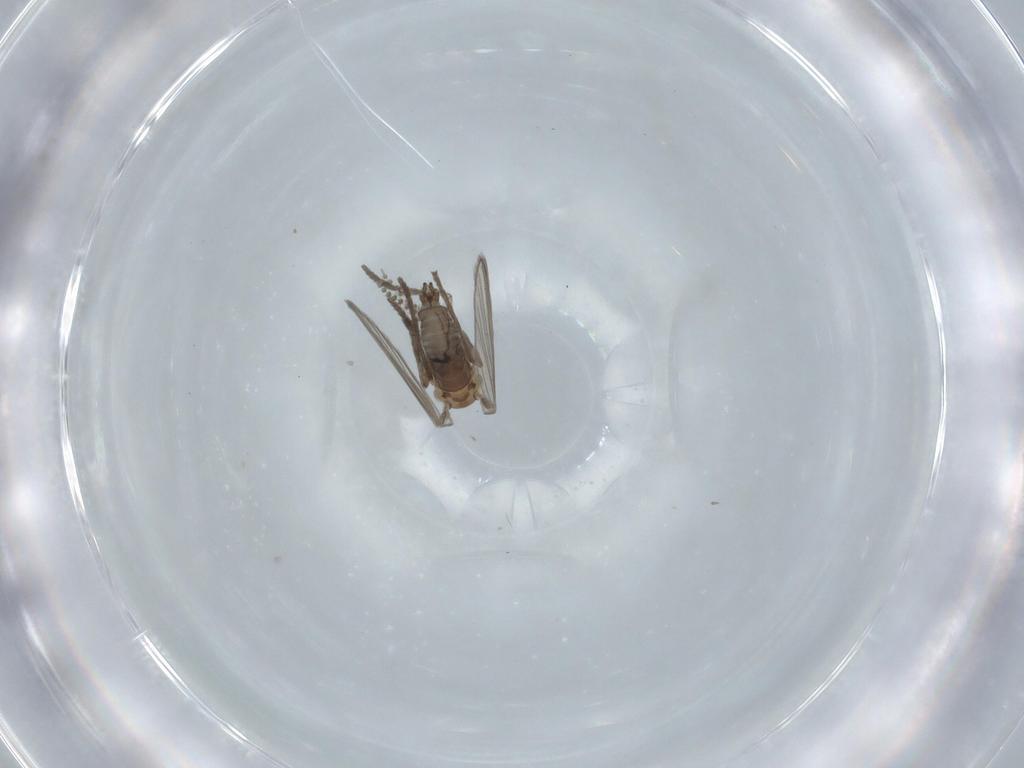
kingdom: Animalia
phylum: Arthropoda
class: Insecta
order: Diptera
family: Psychodidae
